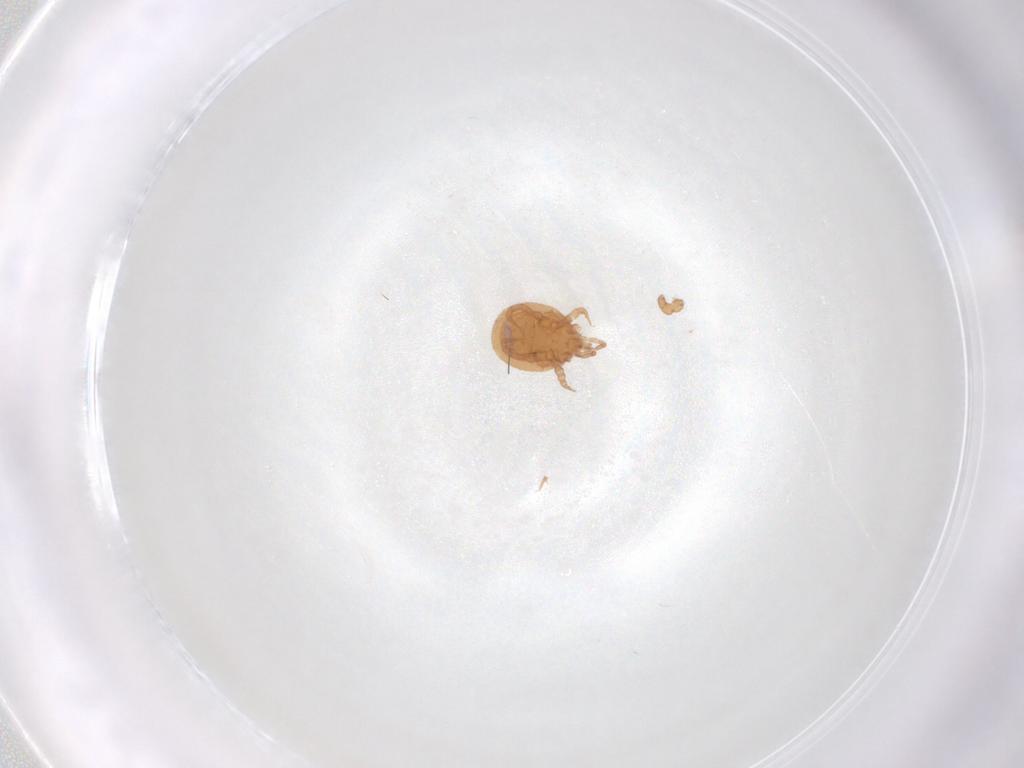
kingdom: Animalia
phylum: Arthropoda
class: Arachnida
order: Mesostigmata
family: Macrochelidae
